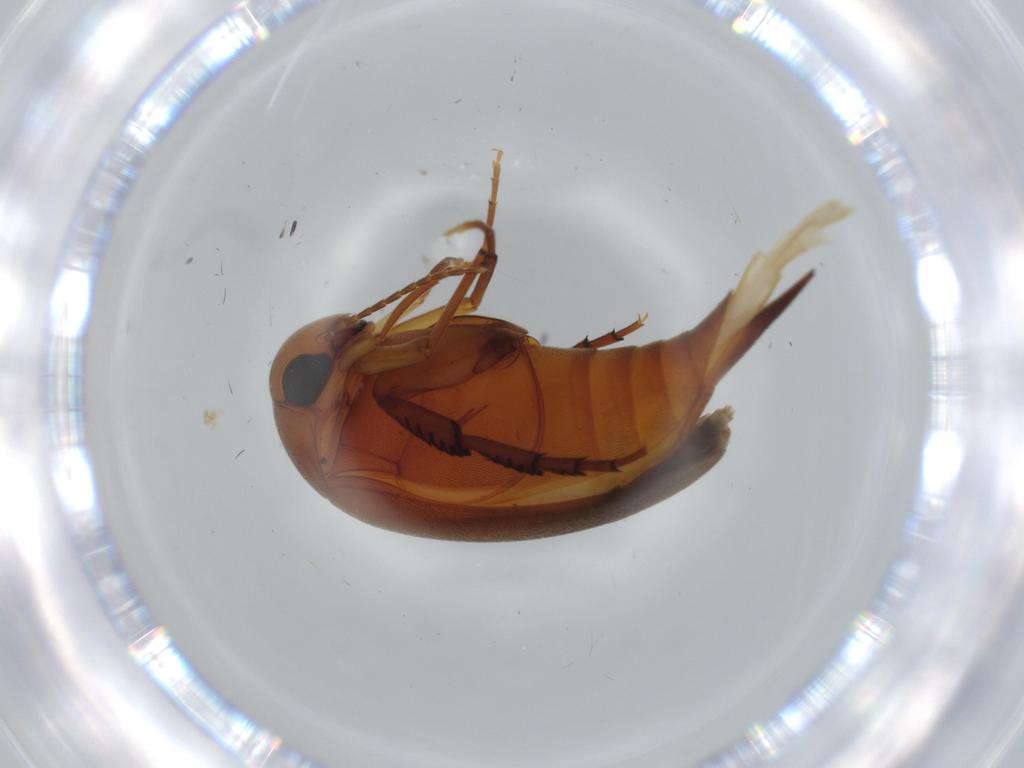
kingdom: Animalia
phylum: Arthropoda
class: Insecta
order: Coleoptera
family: Mordellidae
